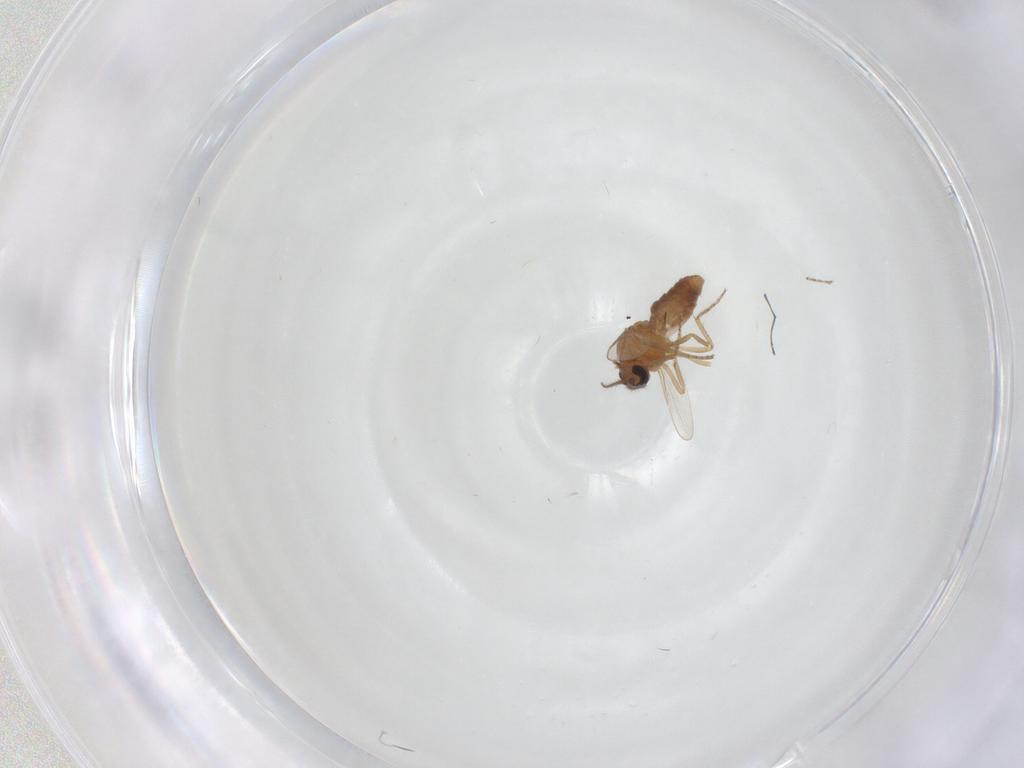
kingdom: Animalia
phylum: Arthropoda
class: Insecta
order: Diptera
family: Ceratopogonidae
